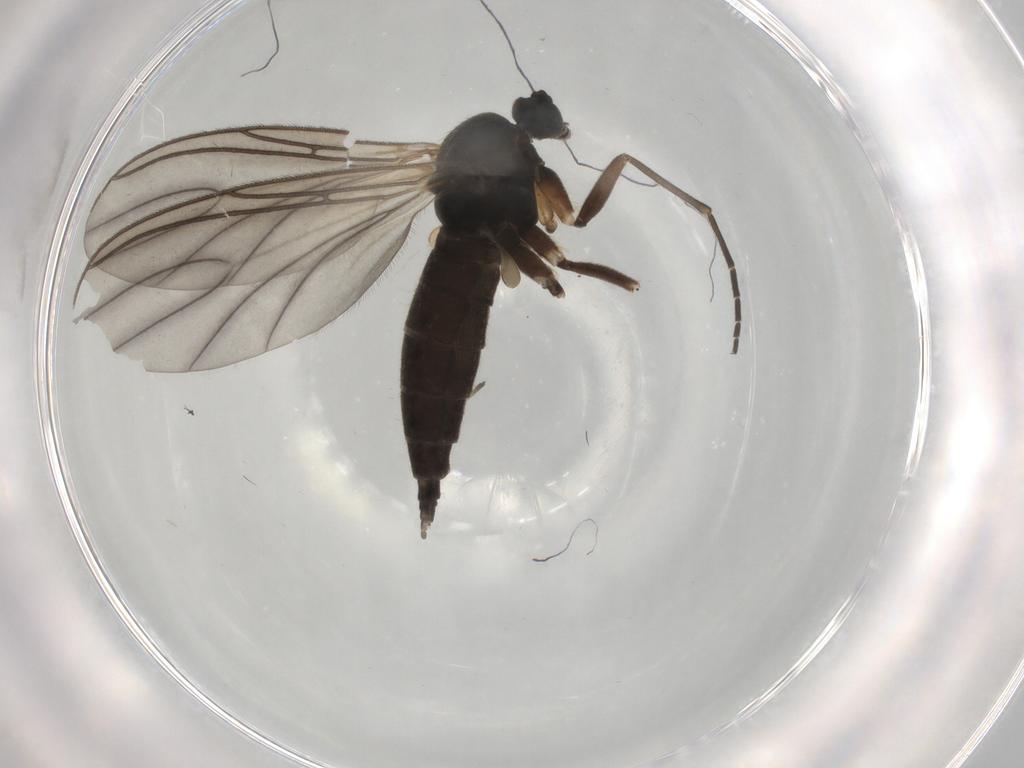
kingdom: Animalia
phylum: Arthropoda
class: Insecta
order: Diptera
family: Sciaridae
